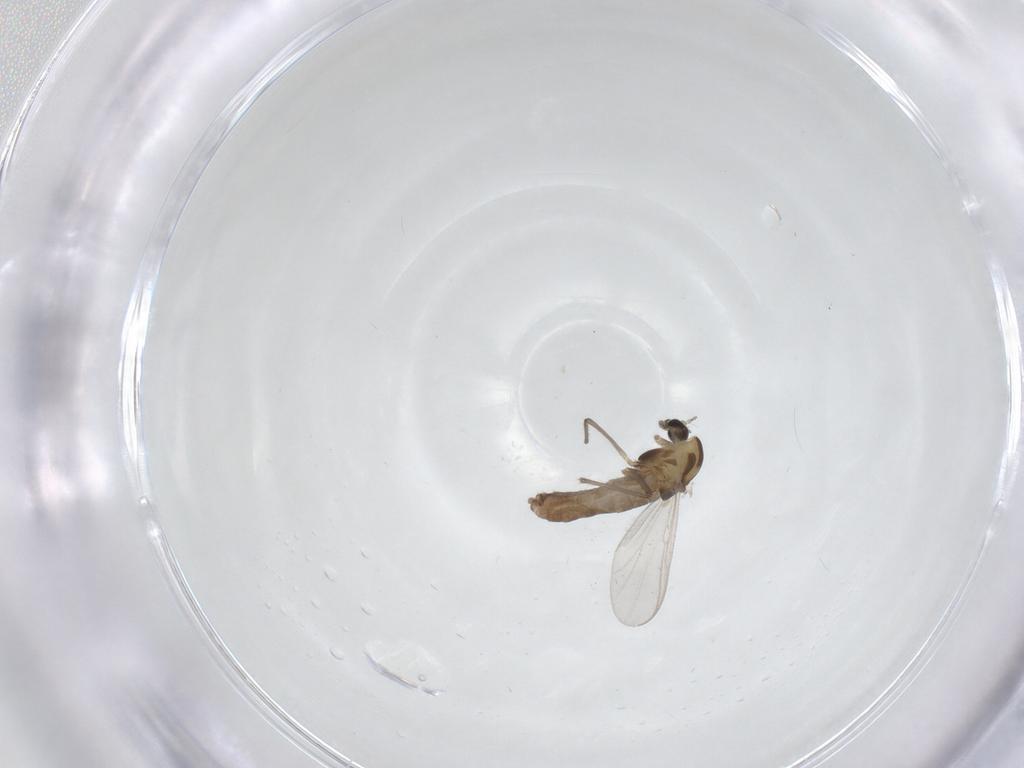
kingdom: Animalia
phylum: Arthropoda
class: Insecta
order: Diptera
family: Chironomidae
